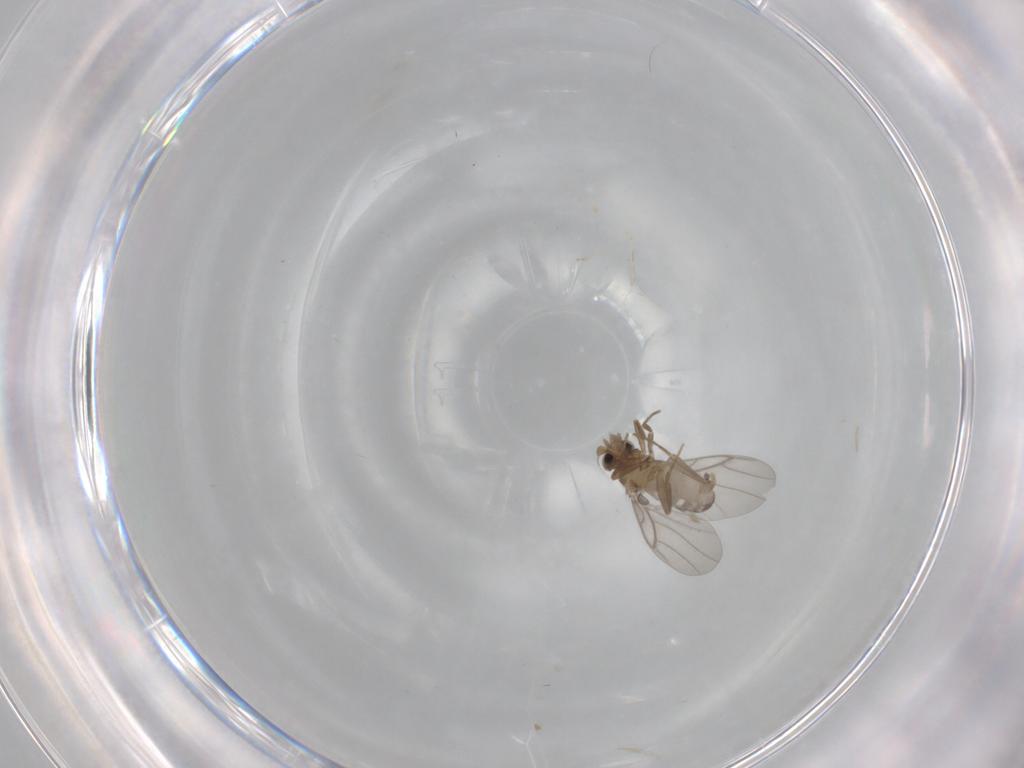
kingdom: Animalia
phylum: Arthropoda
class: Insecta
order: Diptera
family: Cecidomyiidae
